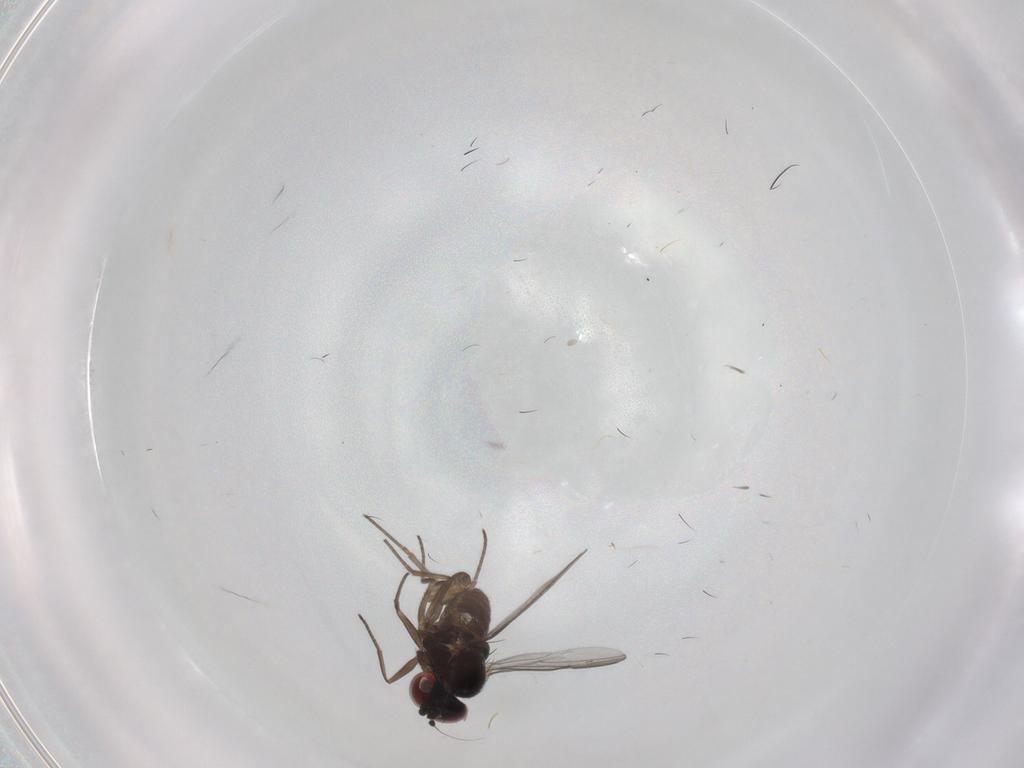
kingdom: Animalia
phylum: Arthropoda
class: Insecta
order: Diptera
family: Dolichopodidae
